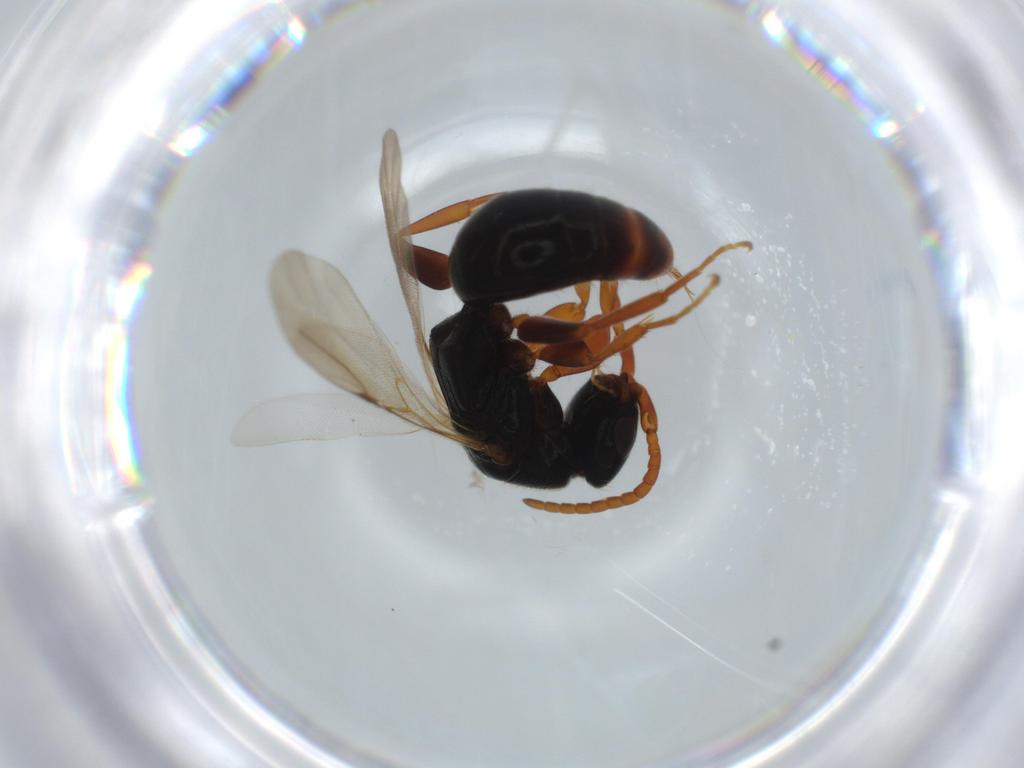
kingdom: Animalia
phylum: Arthropoda
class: Insecta
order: Hymenoptera
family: Bethylidae
